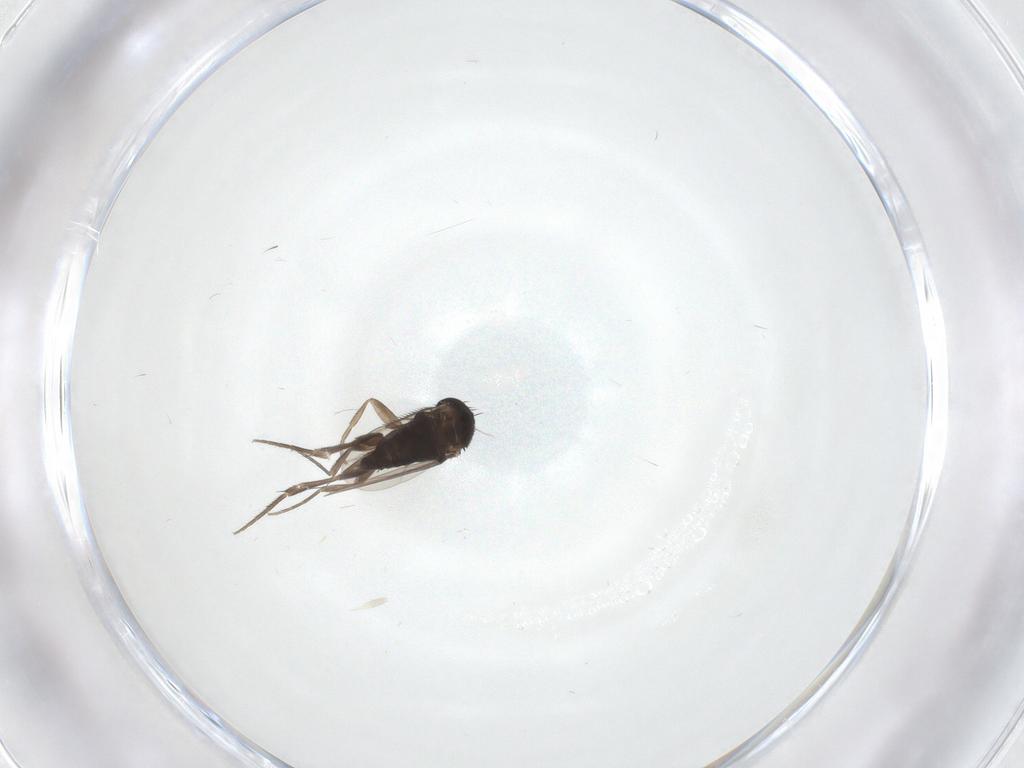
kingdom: Animalia
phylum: Arthropoda
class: Insecta
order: Diptera
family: Phoridae
